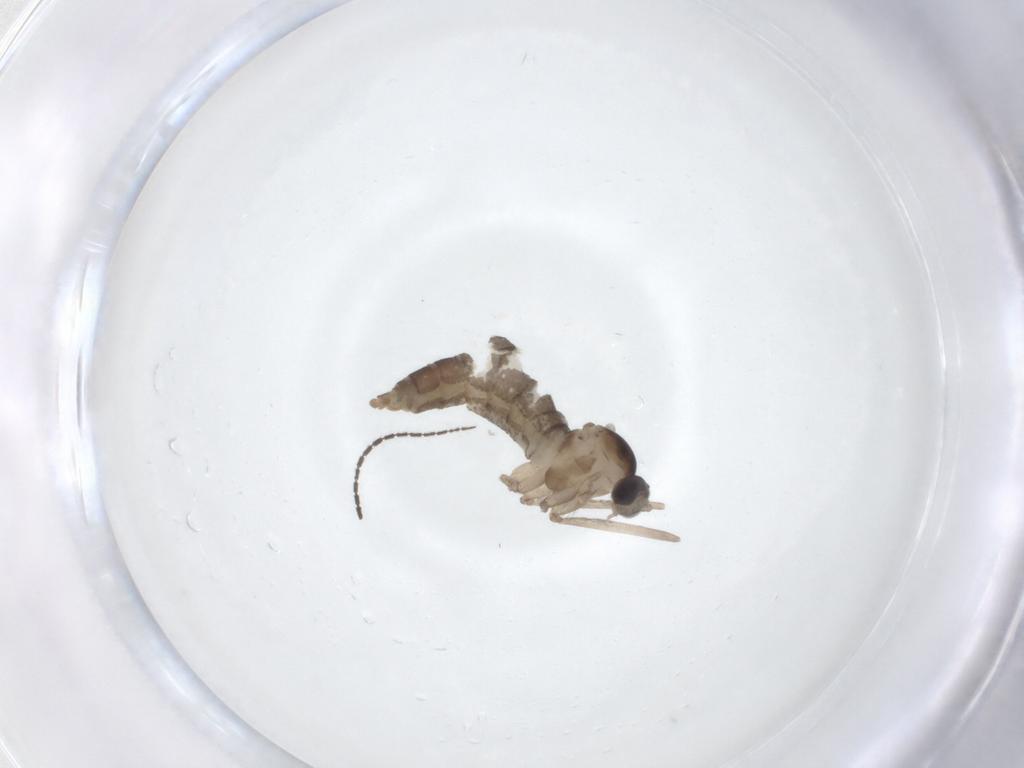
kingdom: Animalia
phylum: Arthropoda
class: Insecta
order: Diptera
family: Cecidomyiidae
